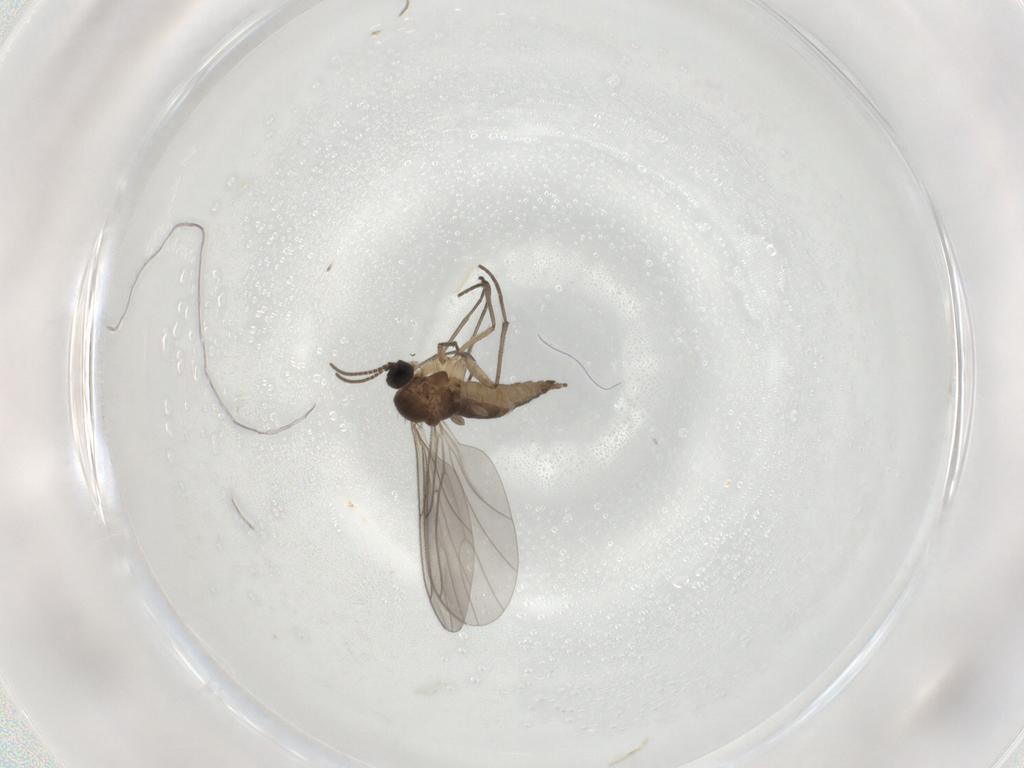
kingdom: Animalia
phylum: Arthropoda
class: Insecta
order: Diptera
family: Sciaridae
